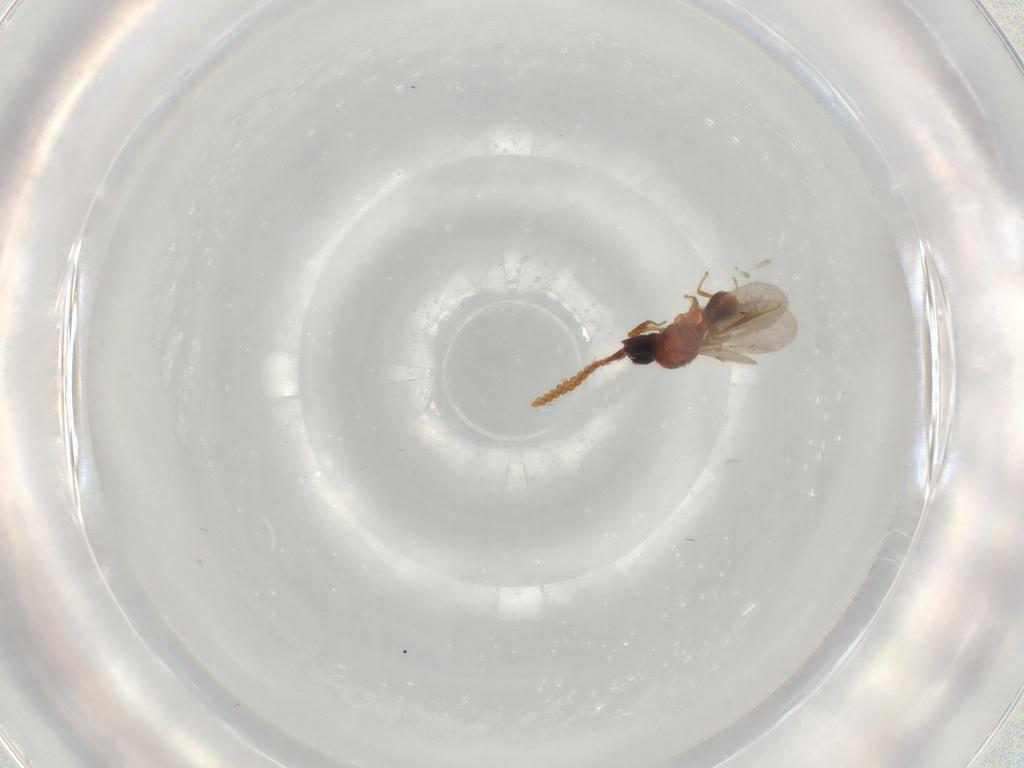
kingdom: Animalia
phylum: Arthropoda
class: Insecta
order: Hymenoptera
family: Diapriidae
